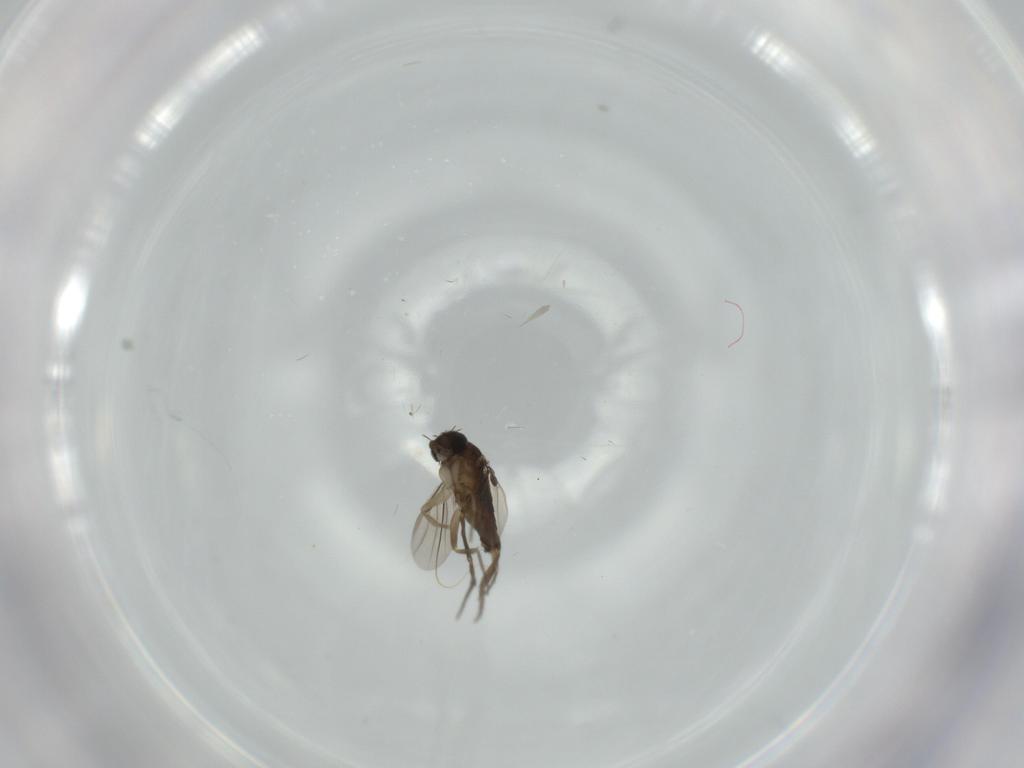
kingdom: Animalia
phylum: Arthropoda
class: Insecta
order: Diptera
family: Phoridae
